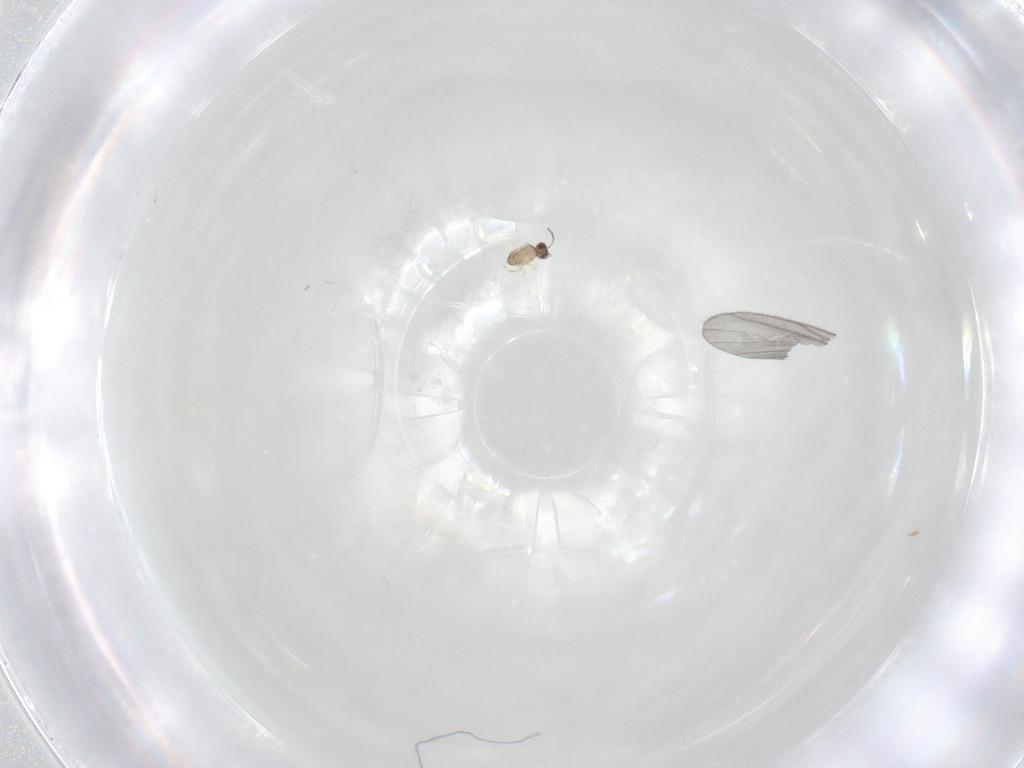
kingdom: Animalia
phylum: Arthropoda
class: Insecta
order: Diptera
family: Sciaridae
